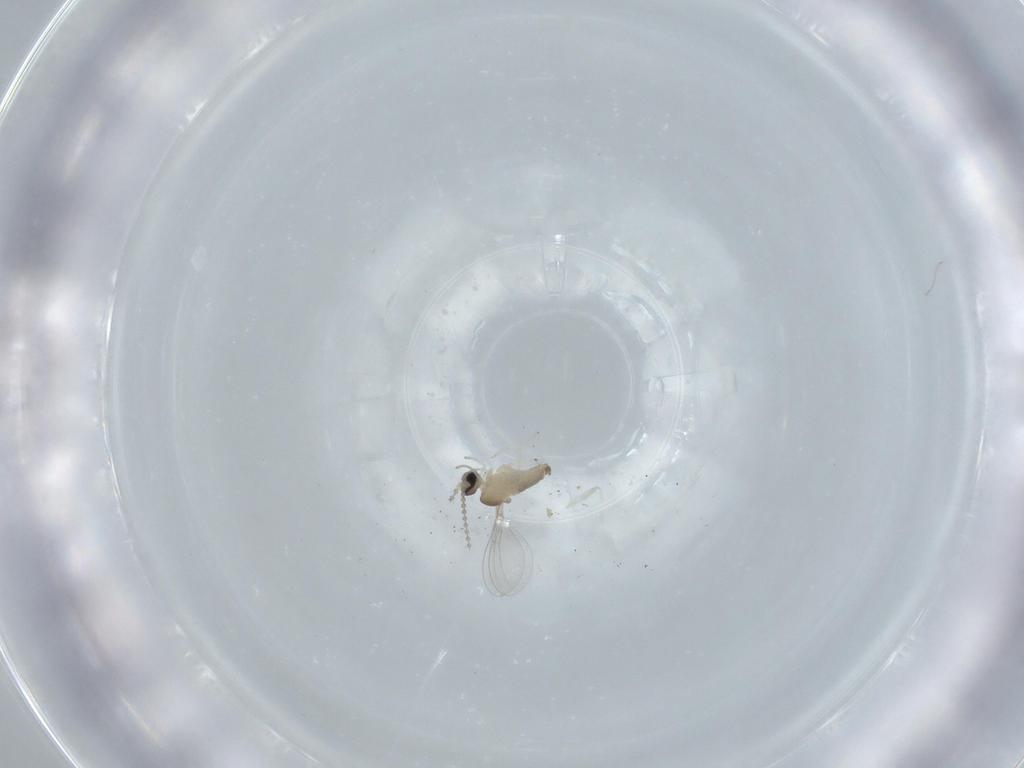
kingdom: Animalia
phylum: Arthropoda
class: Insecta
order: Diptera
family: Cecidomyiidae
